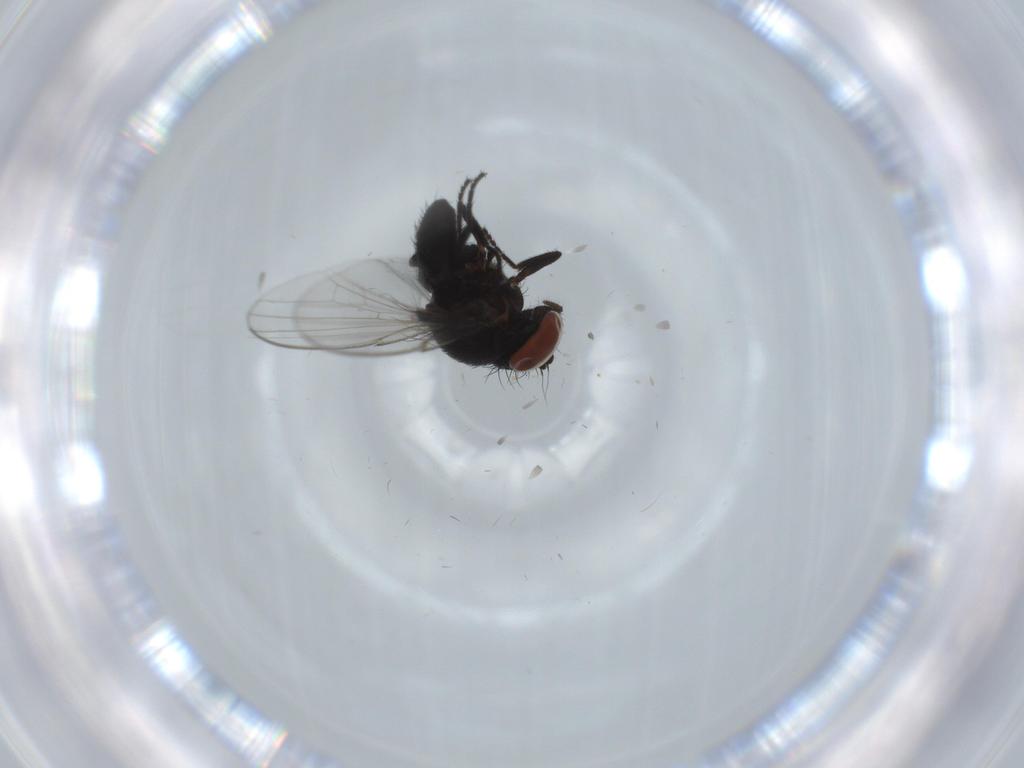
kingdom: Animalia
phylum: Arthropoda
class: Insecta
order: Diptera
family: Milichiidae
